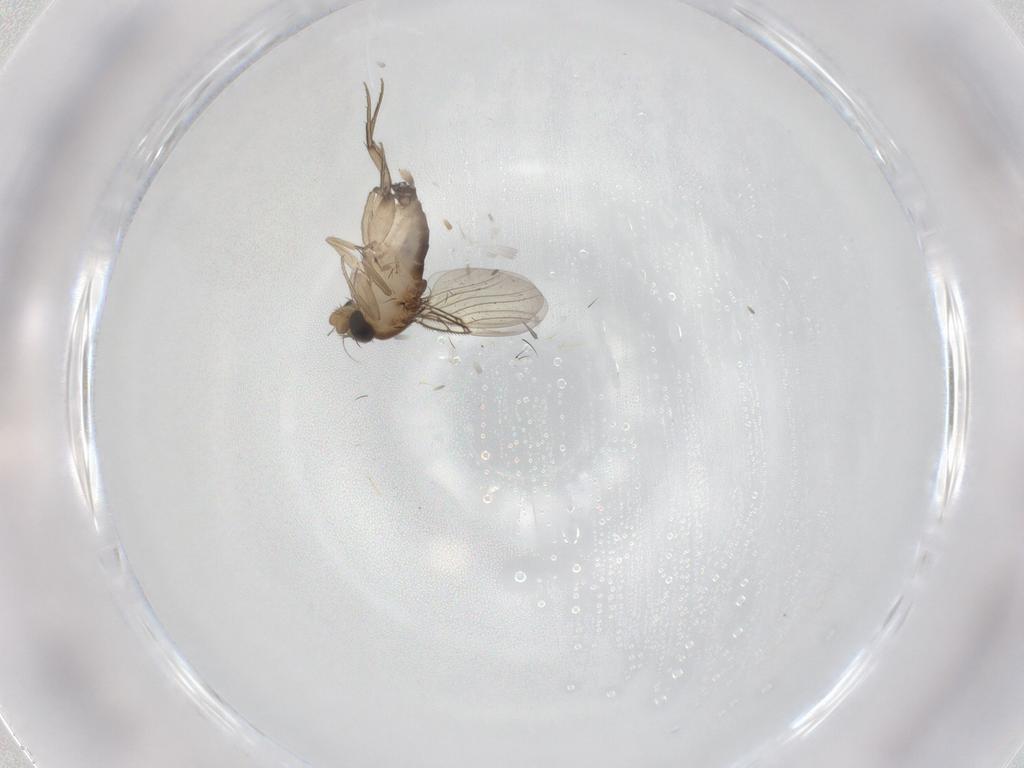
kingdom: Animalia
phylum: Arthropoda
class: Insecta
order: Diptera
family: Phoridae
